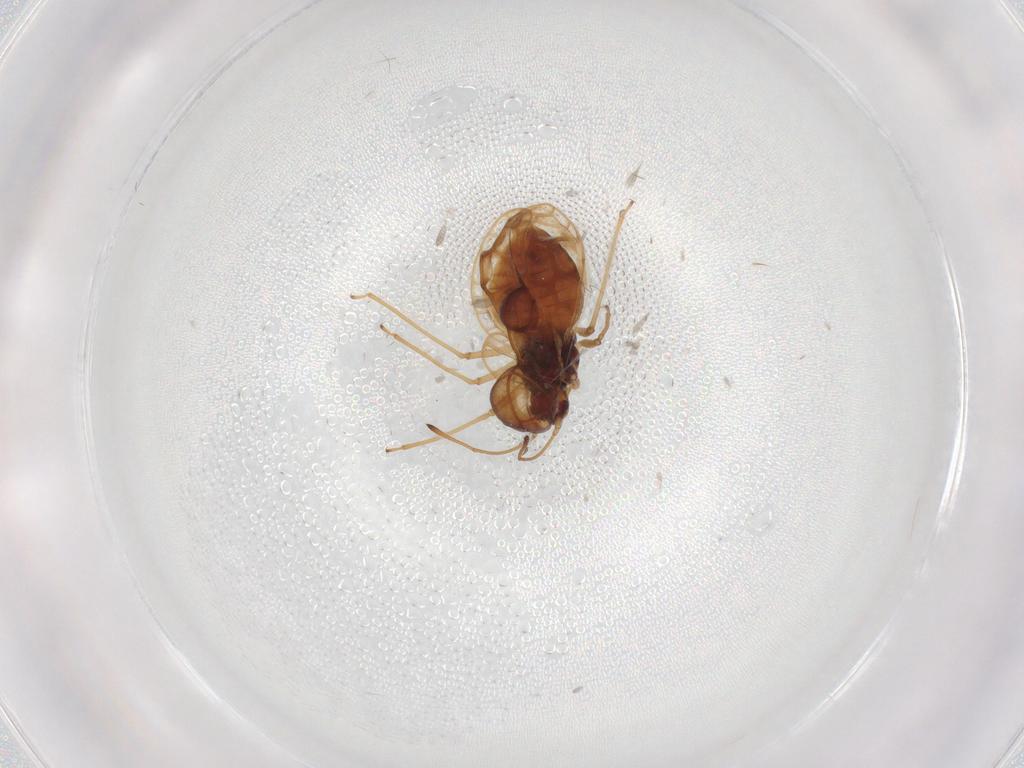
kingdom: Animalia
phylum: Arthropoda
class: Insecta
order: Hemiptera
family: Tingidae
